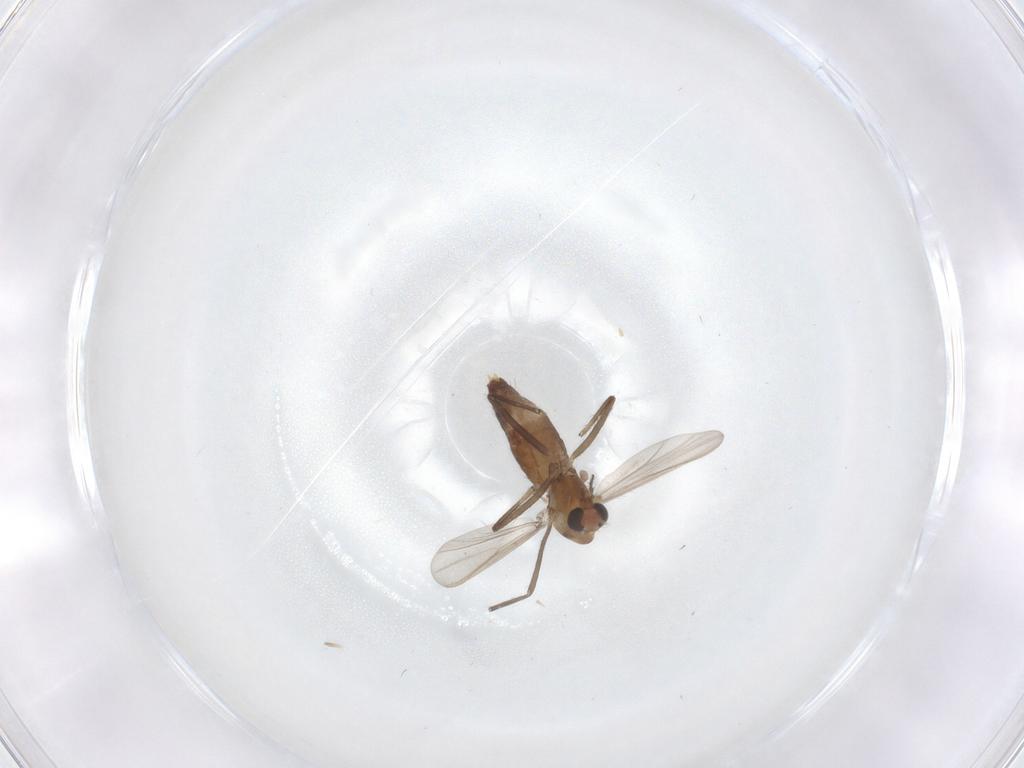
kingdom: Animalia
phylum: Arthropoda
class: Insecta
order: Diptera
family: Chironomidae
